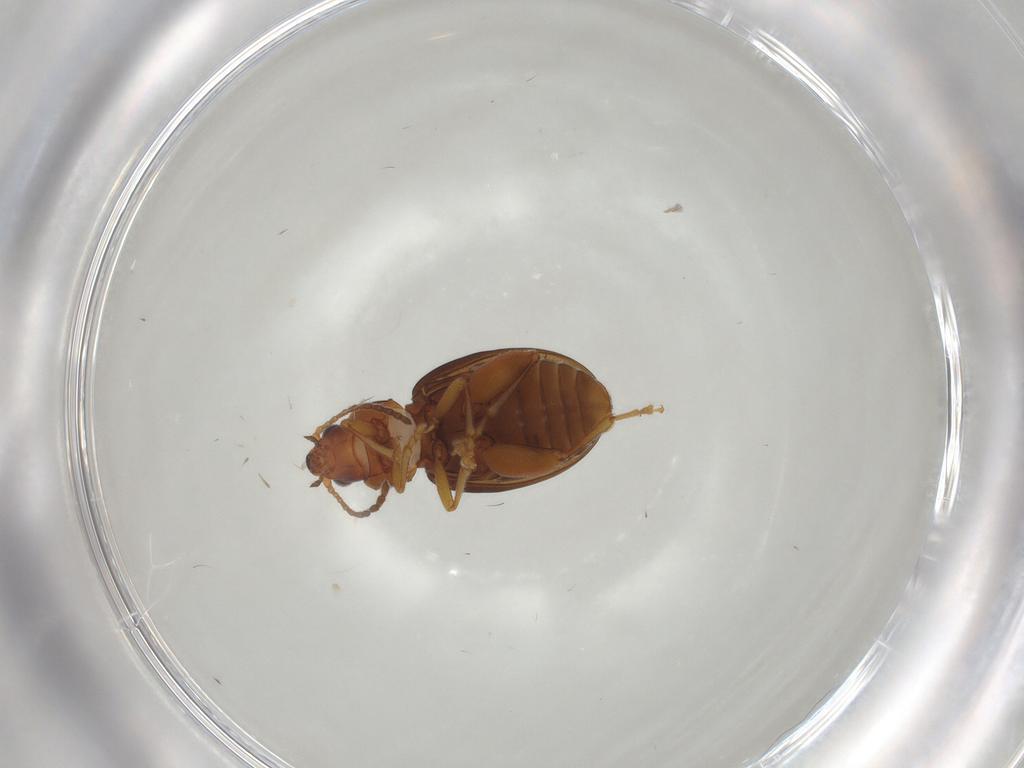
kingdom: Animalia
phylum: Arthropoda
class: Insecta
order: Coleoptera
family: Chrysomelidae
